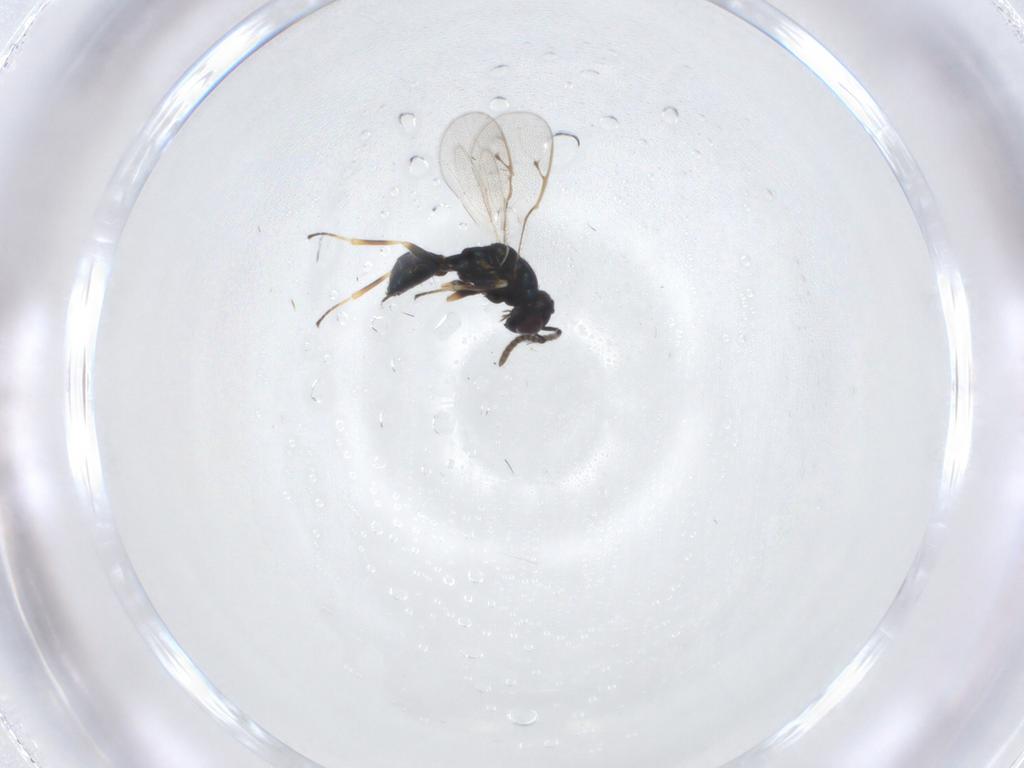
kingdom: Animalia
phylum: Arthropoda
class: Insecta
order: Hymenoptera
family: Pteromalidae
